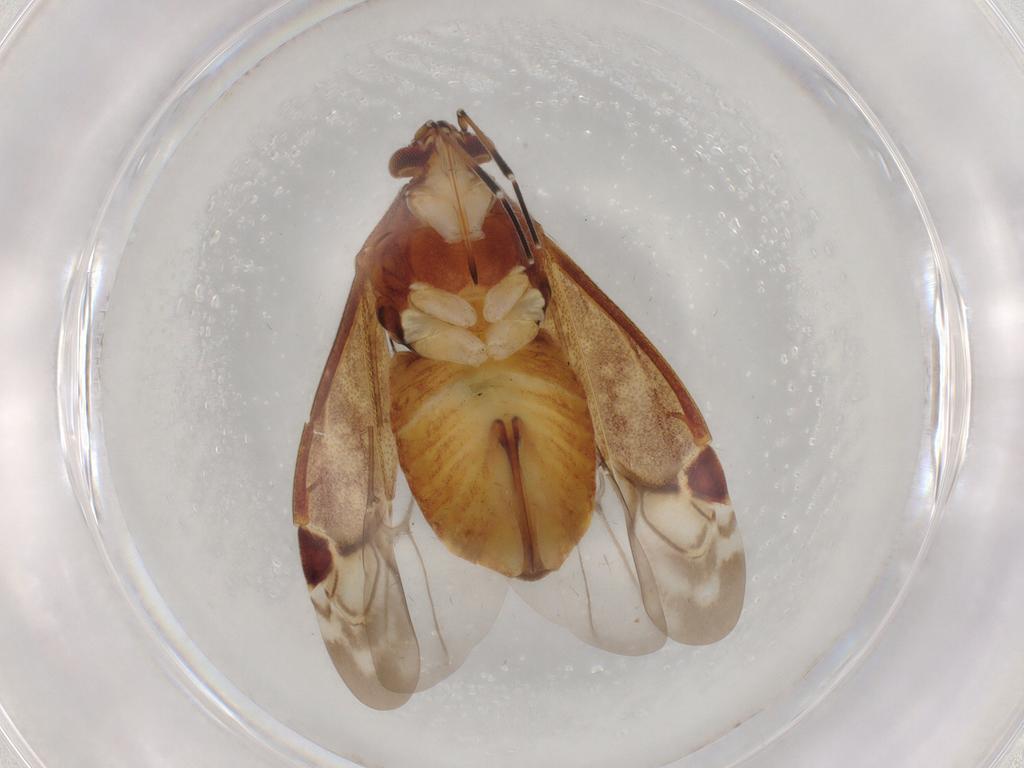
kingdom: Animalia
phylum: Arthropoda
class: Insecta
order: Hemiptera
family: Miridae
